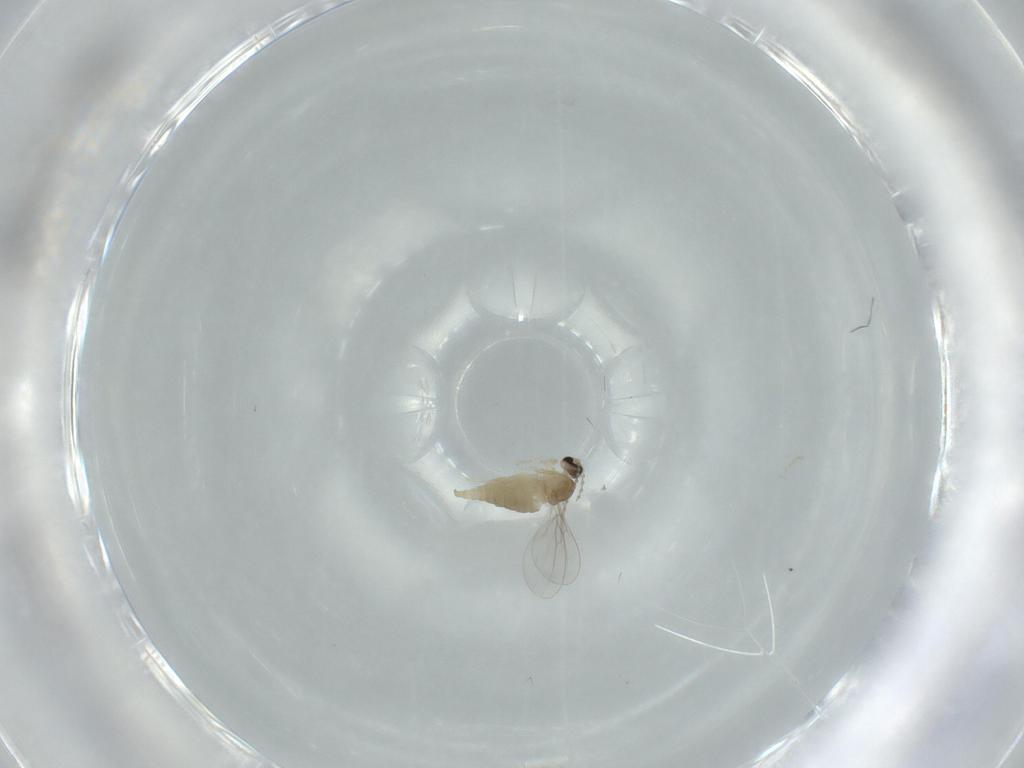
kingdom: Animalia
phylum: Arthropoda
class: Insecta
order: Diptera
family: Cecidomyiidae
